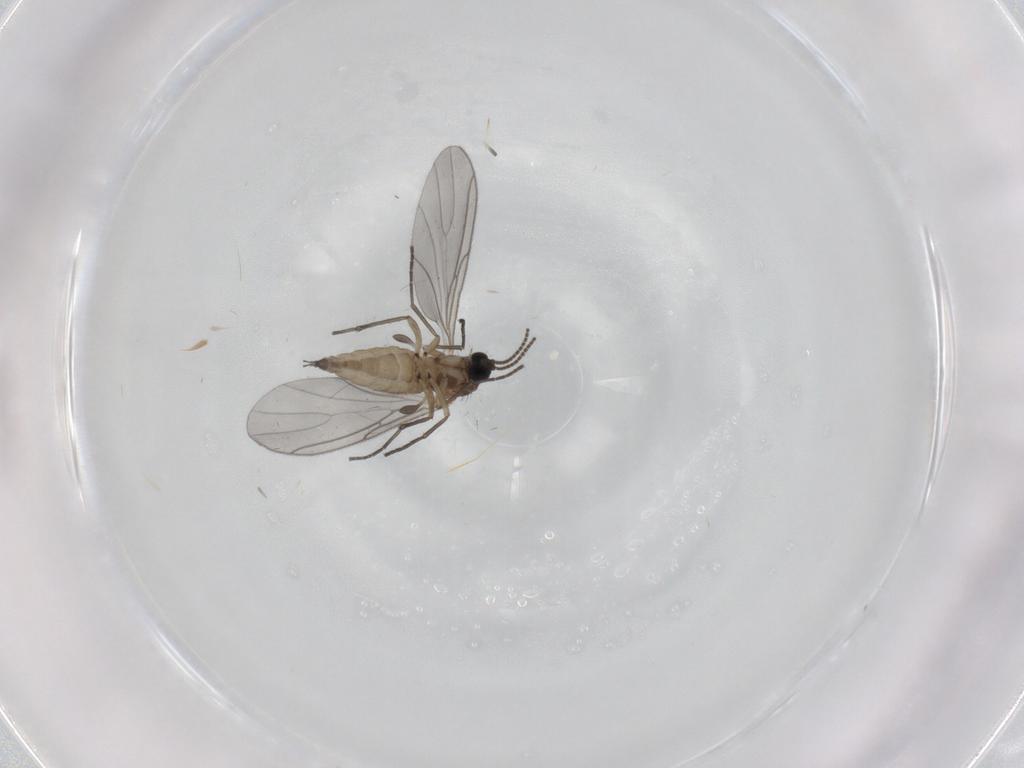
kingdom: Animalia
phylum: Arthropoda
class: Insecta
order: Diptera
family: Sciaridae
